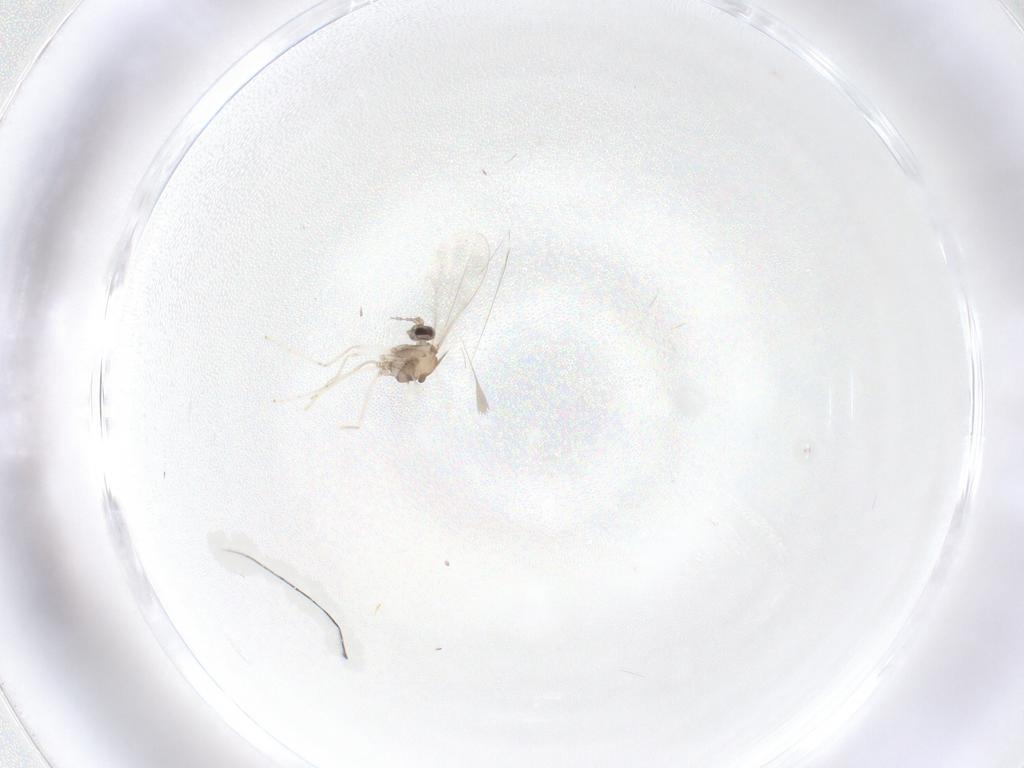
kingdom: Animalia
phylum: Arthropoda
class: Insecta
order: Diptera
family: Cecidomyiidae
